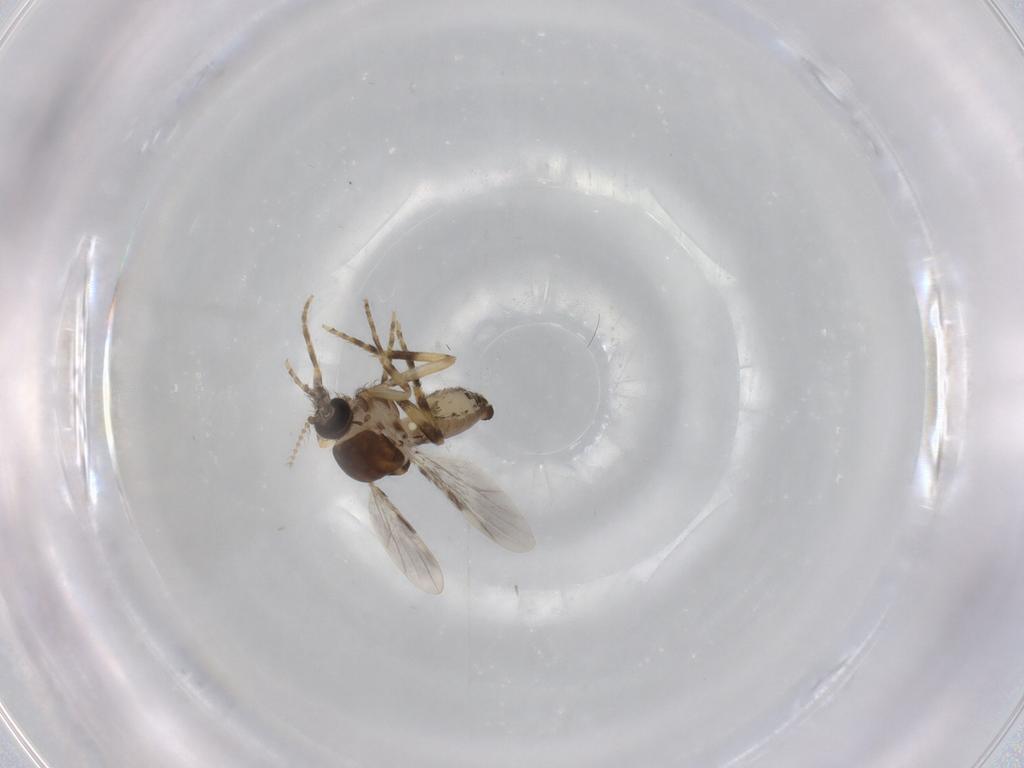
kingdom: Animalia
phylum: Arthropoda
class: Insecta
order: Diptera
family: Ceratopogonidae
